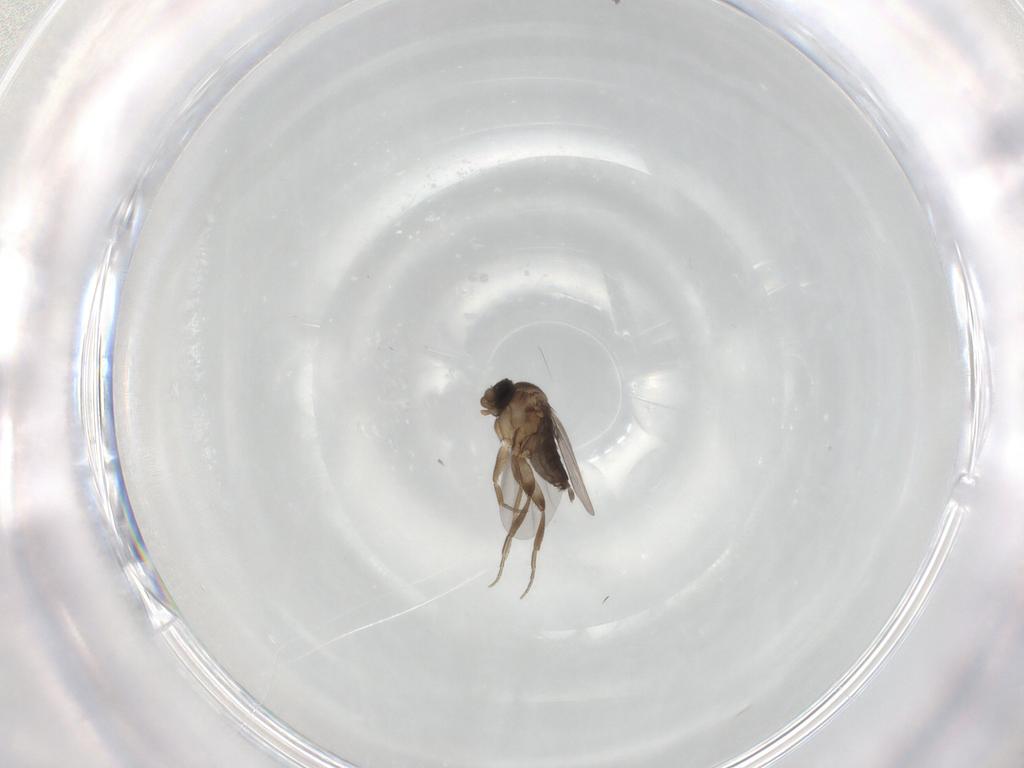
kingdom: Animalia
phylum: Arthropoda
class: Insecta
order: Diptera
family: Phoridae
